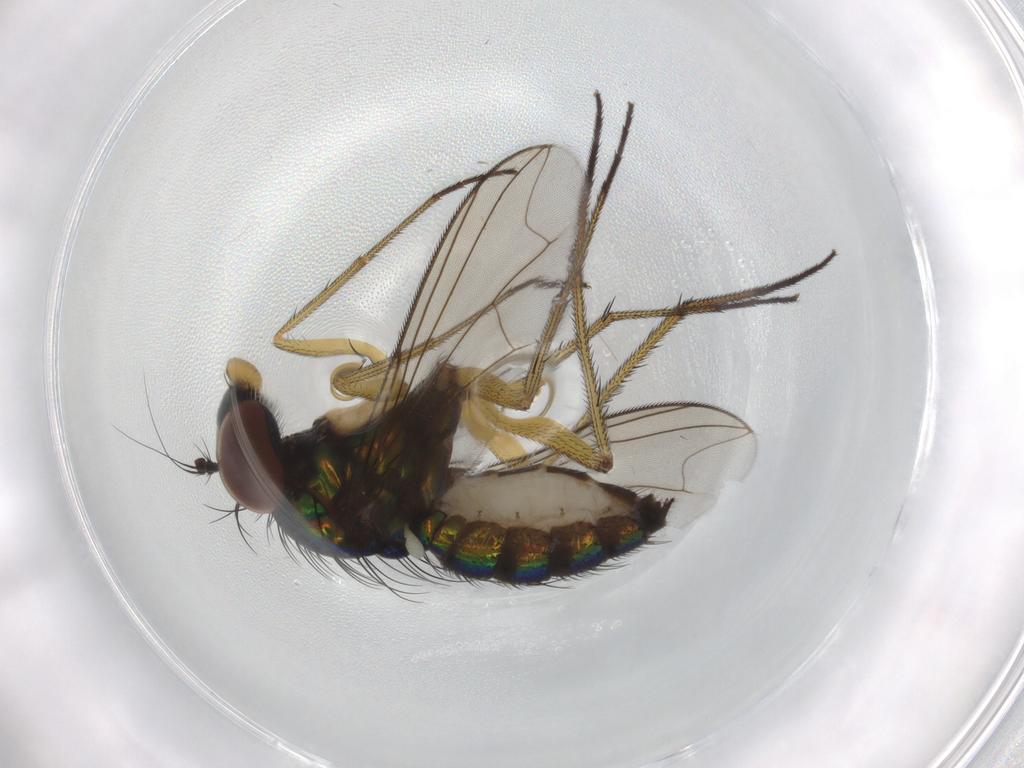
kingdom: Animalia
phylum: Arthropoda
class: Insecta
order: Diptera
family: Dolichopodidae
